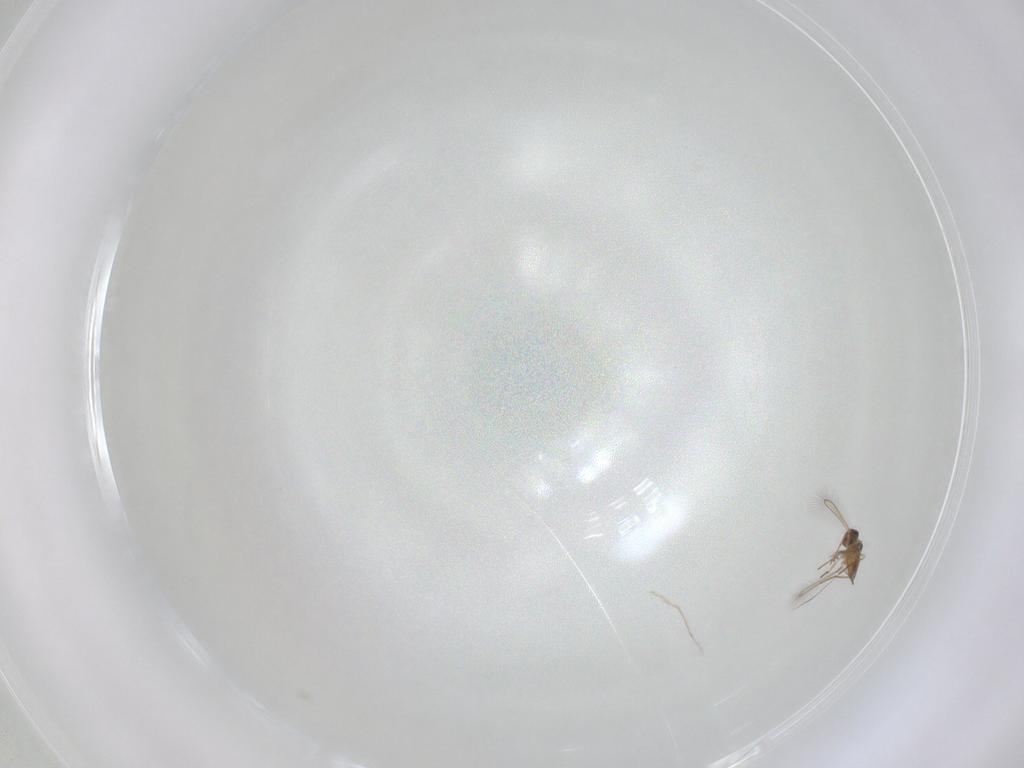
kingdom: Animalia
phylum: Arthropoda
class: Insecta
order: Hymenoptera
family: Mymaridae
